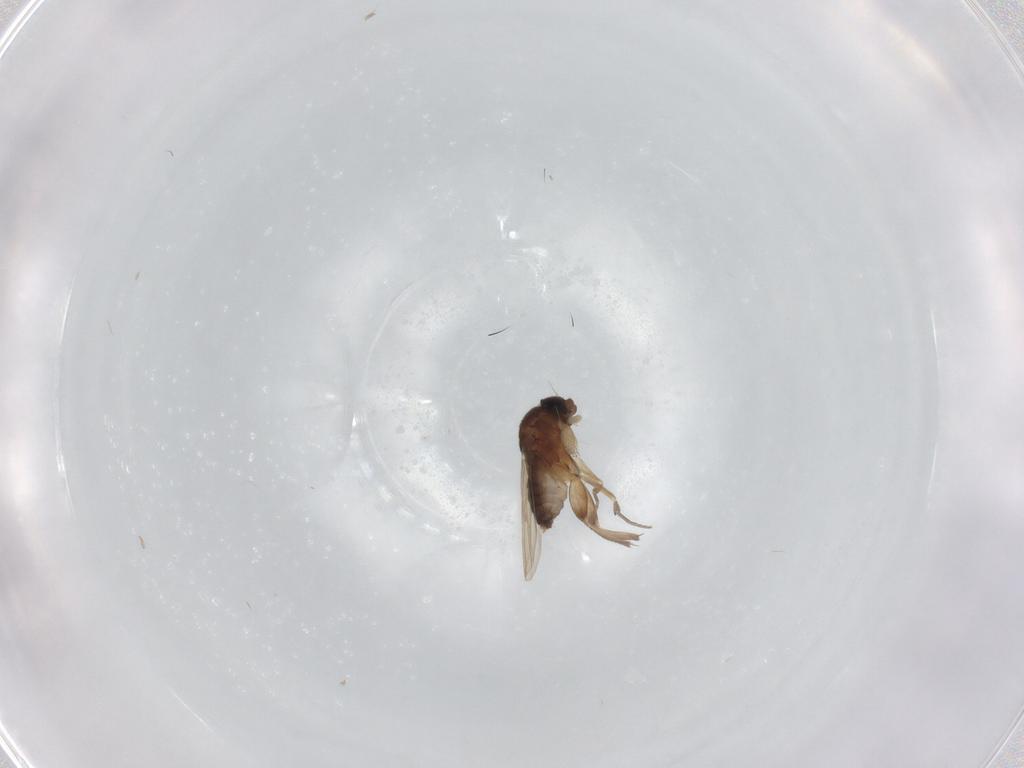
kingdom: Animalia
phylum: Arthropoda
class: Insecta
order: Diptera
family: Phoridae
